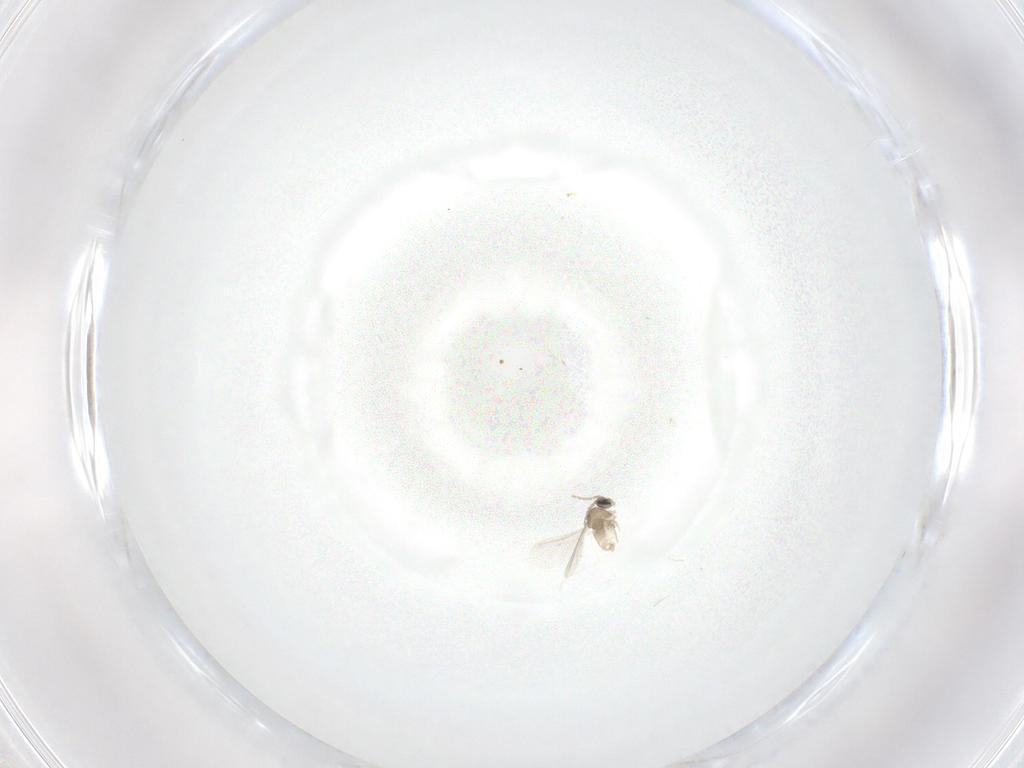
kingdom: Animalia
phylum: Arthropoda
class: Insecta
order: Diptera
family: Cecidomyiidae
